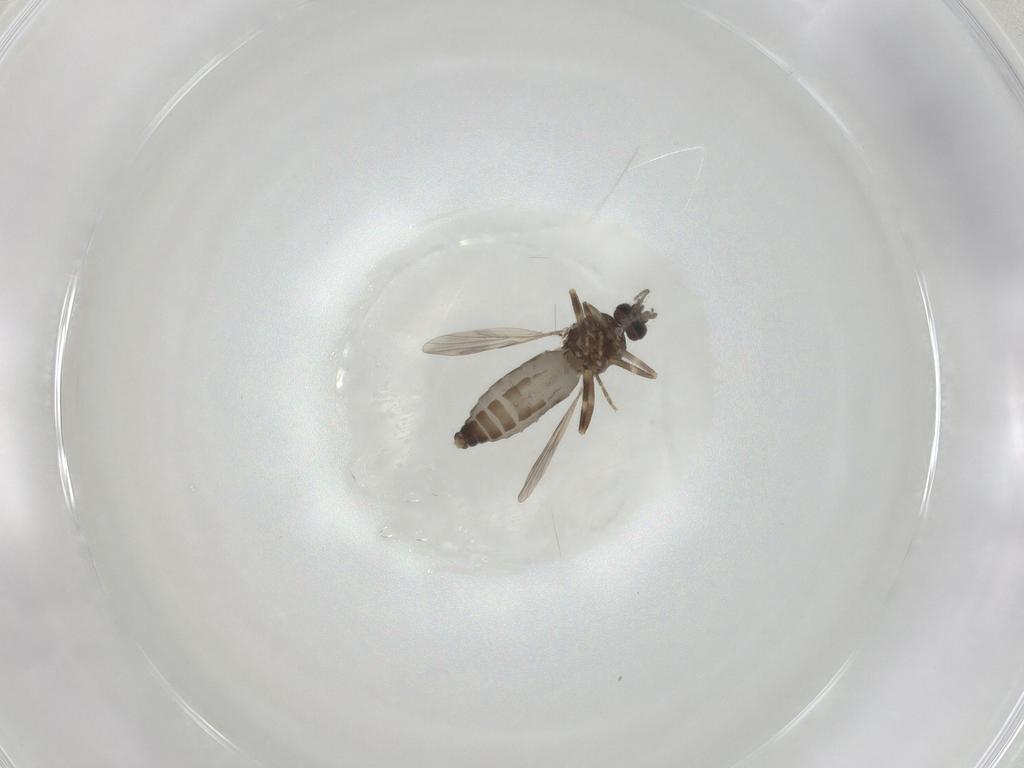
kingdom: Animalia
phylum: Arthropoda
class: Insecta
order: Diptera
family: Ceratopogonidae
